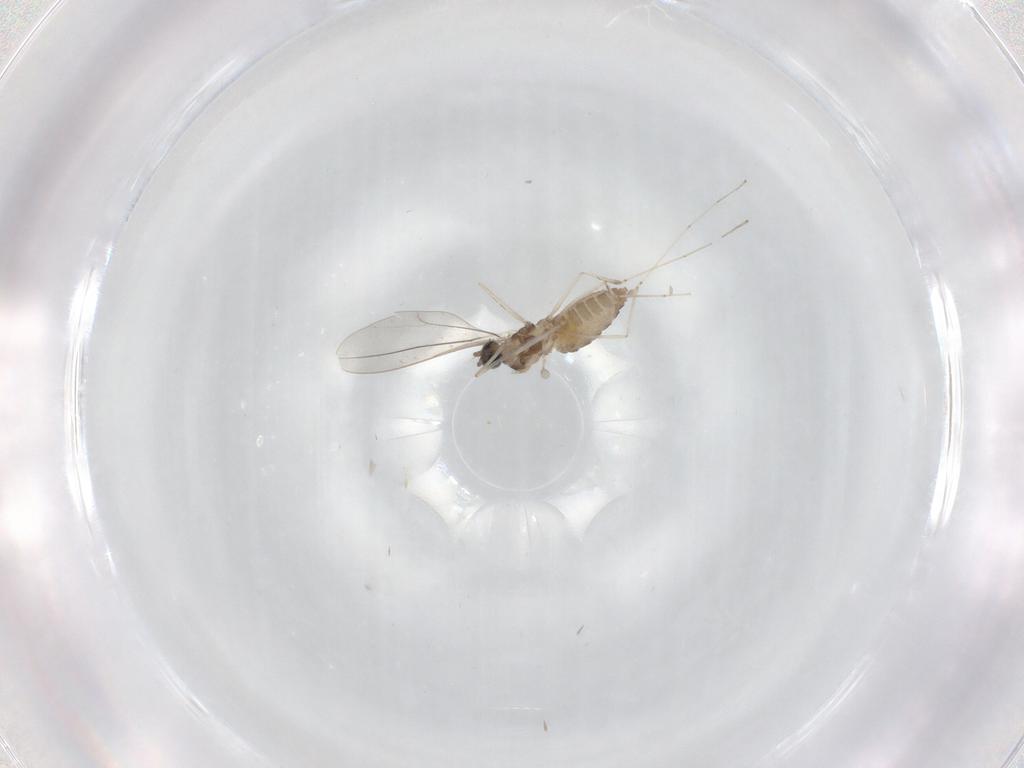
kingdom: Animalia
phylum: Arthropoda
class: Insecta
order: Diptera
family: Cecidomyiidae
